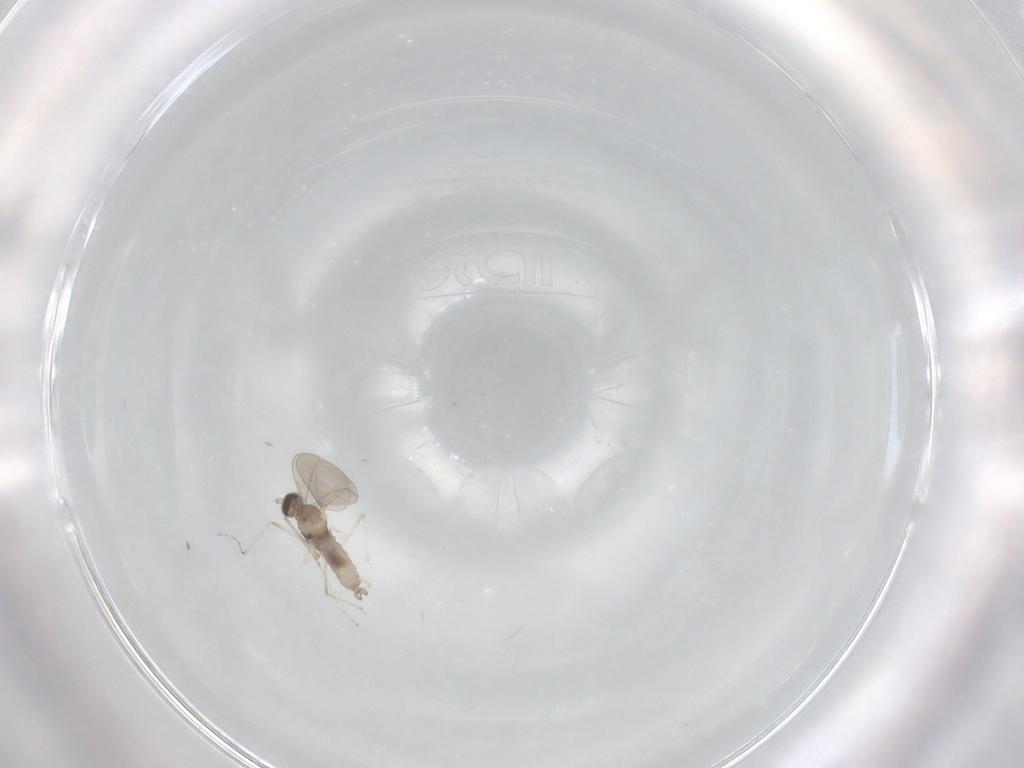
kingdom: Animalia
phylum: Arthropoda
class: Insecta
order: Diptera
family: Cecidomyiidae
